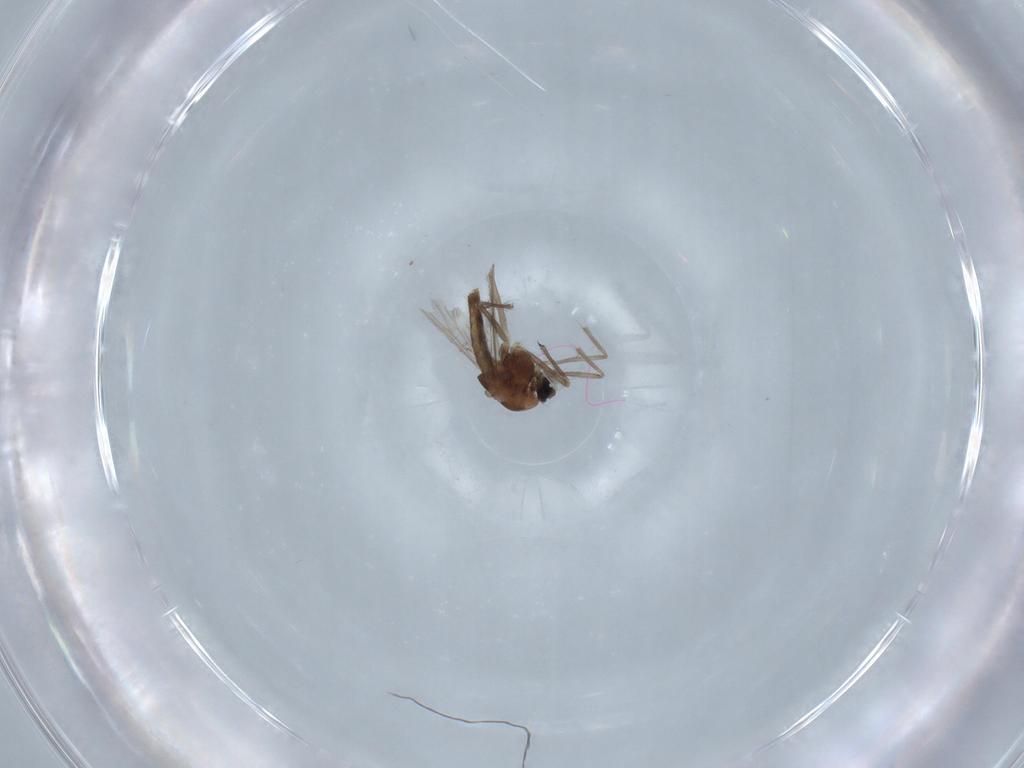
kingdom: Animalia
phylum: Arthropoda
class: Insecta
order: Diptera
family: Chironomidae
